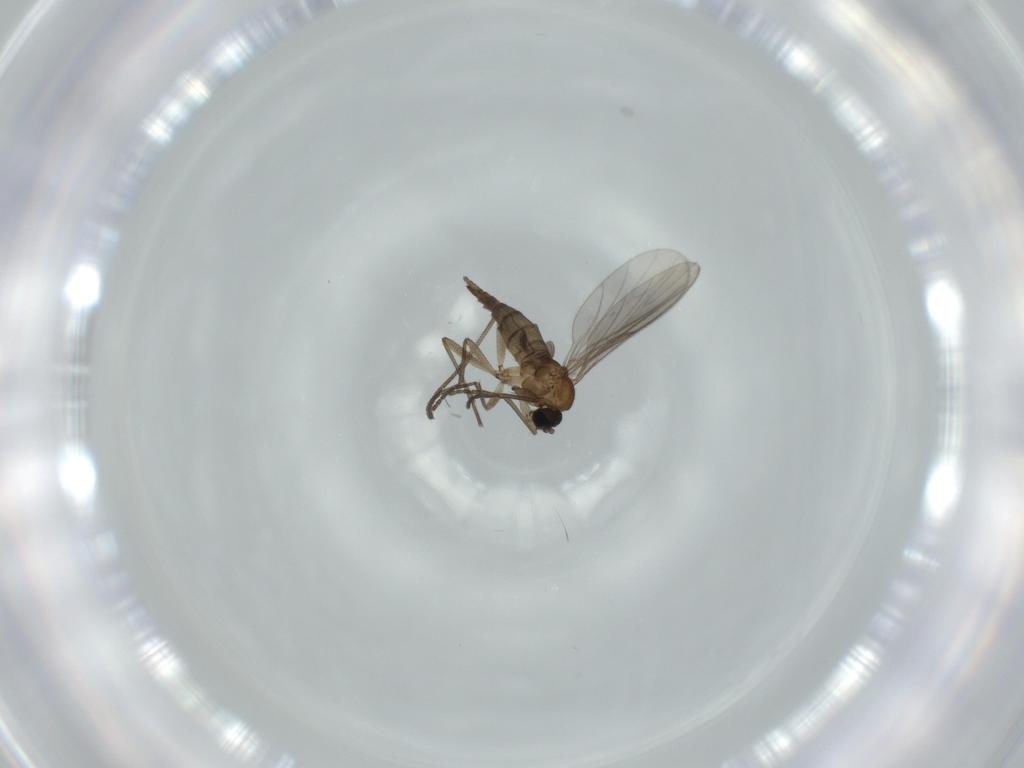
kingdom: Animalia
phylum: Arthropoda
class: Insecta
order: Diptera
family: Sciaridae
